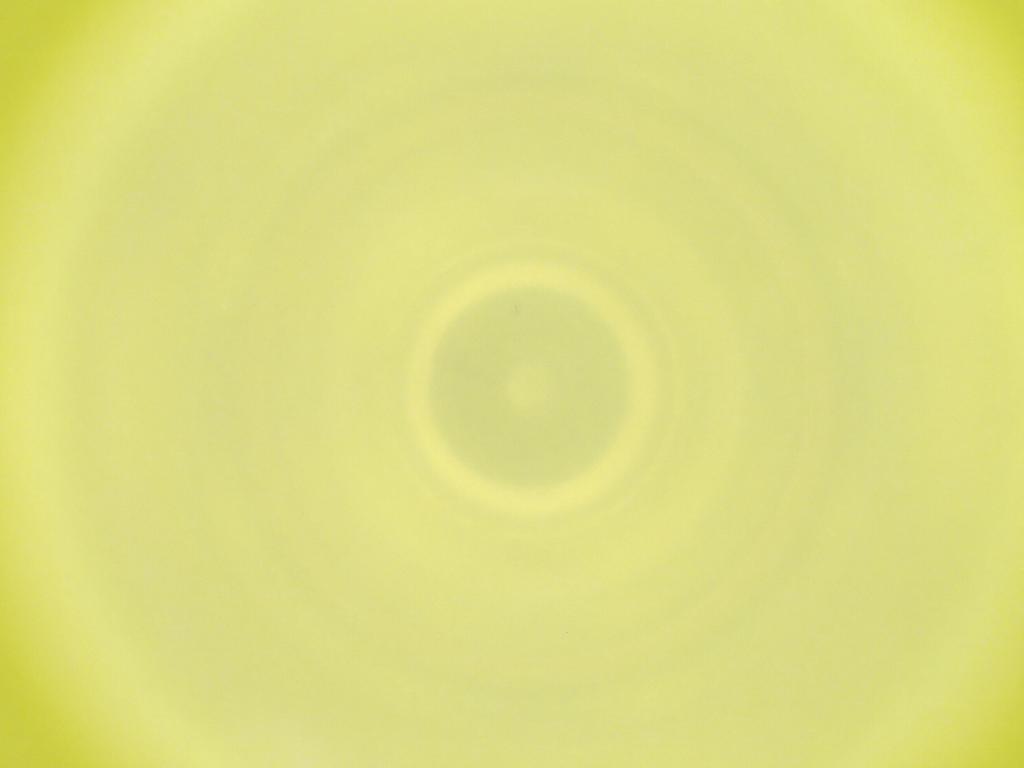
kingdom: Animalia
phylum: Arthropoda
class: Insecta
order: Diptera
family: Cecidomyiidae
